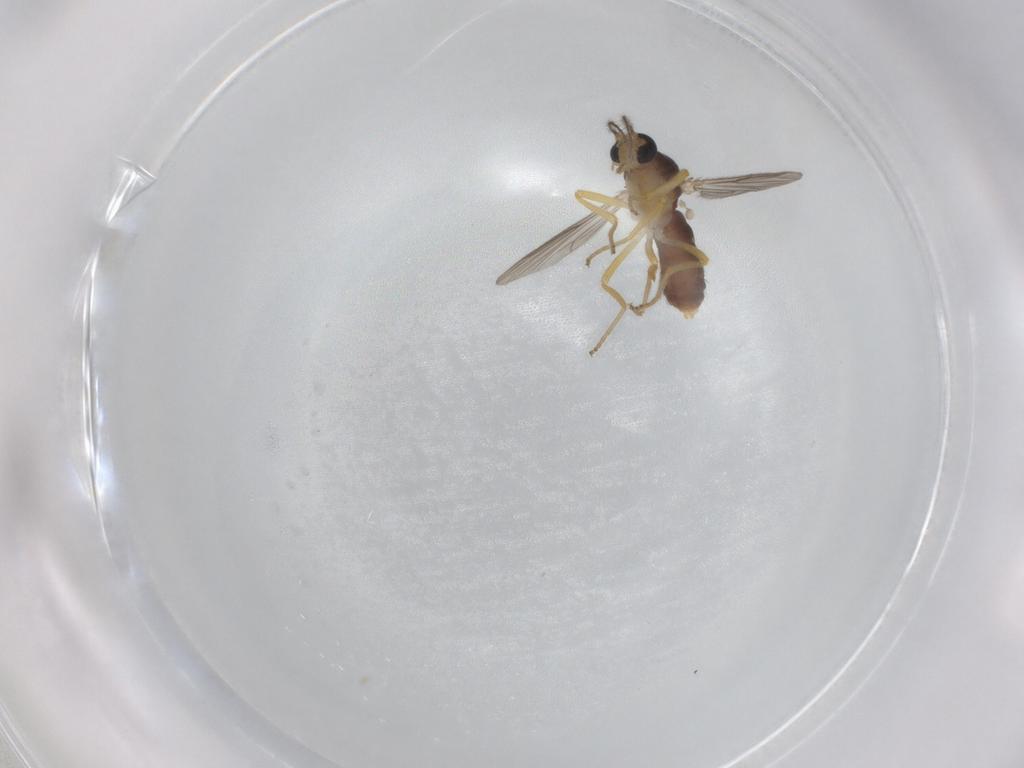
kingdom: Animalia
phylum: Arthropoda
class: Insecta
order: Diptera
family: Ceratopogonidae
